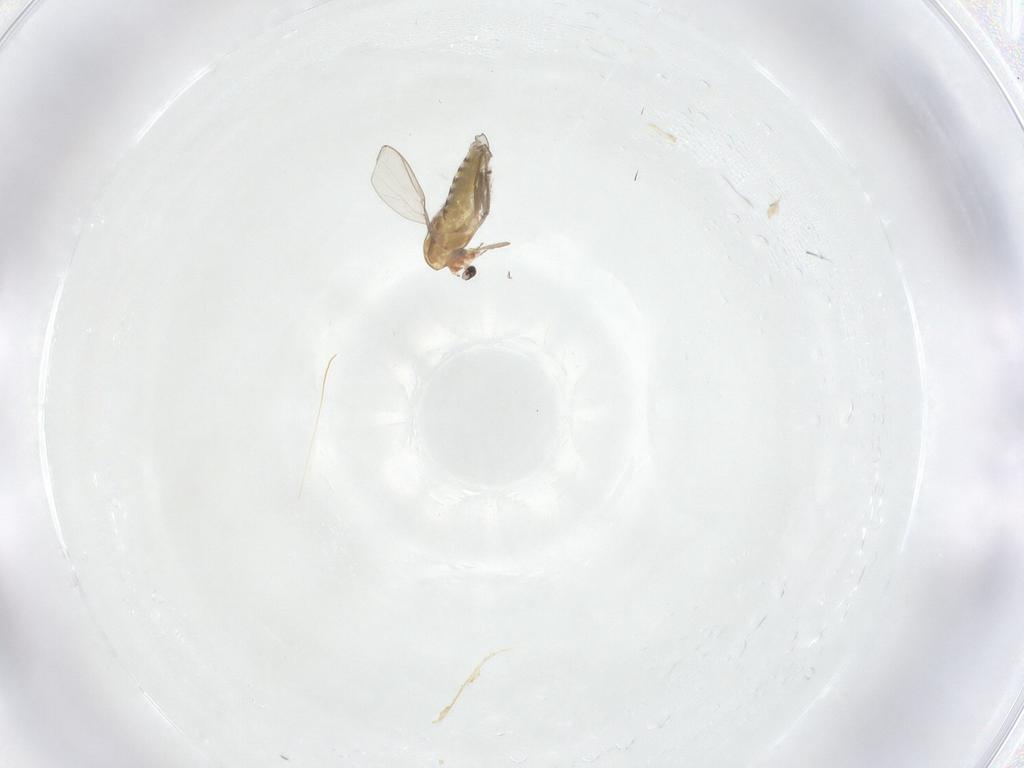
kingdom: Animalia
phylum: Arthropoda
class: Insecta
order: Diptera
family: Chironomidae
